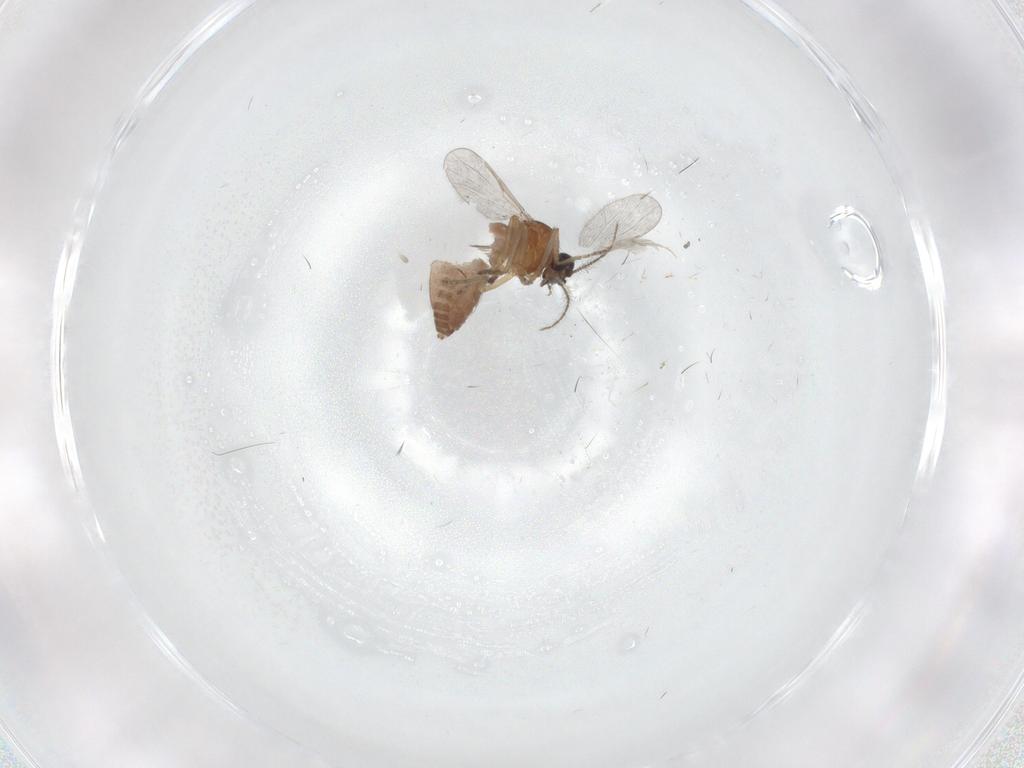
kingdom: Animalia
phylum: Arthropoda
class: Insecta
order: Diptera
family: Ceratopogonidae
